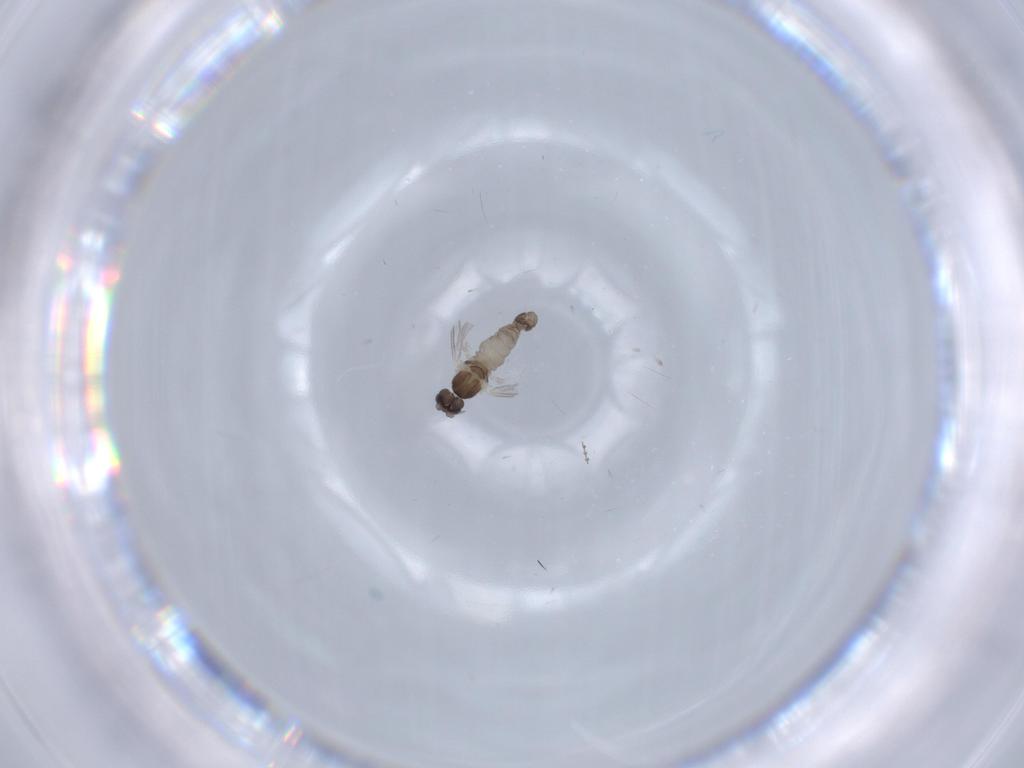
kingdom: Animalia
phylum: Arthropoda
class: Insecta
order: Diptera
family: Cecidomyiidae
